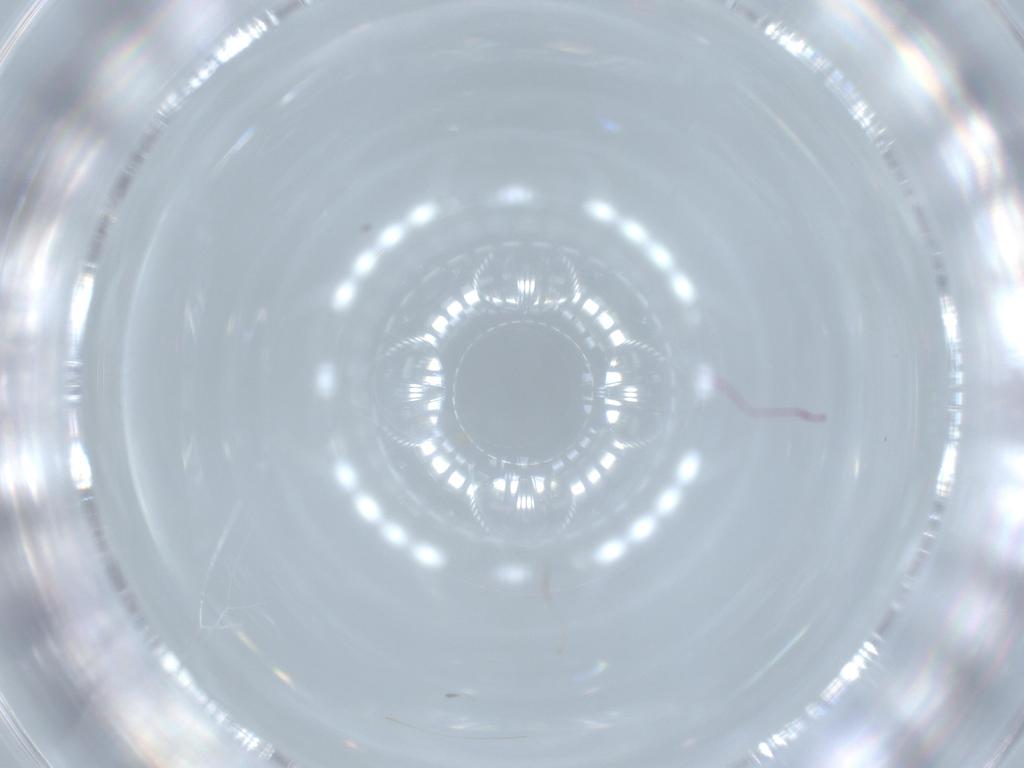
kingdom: Animalia
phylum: Arthropoda
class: Insecta
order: Diptera
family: Phoridae
